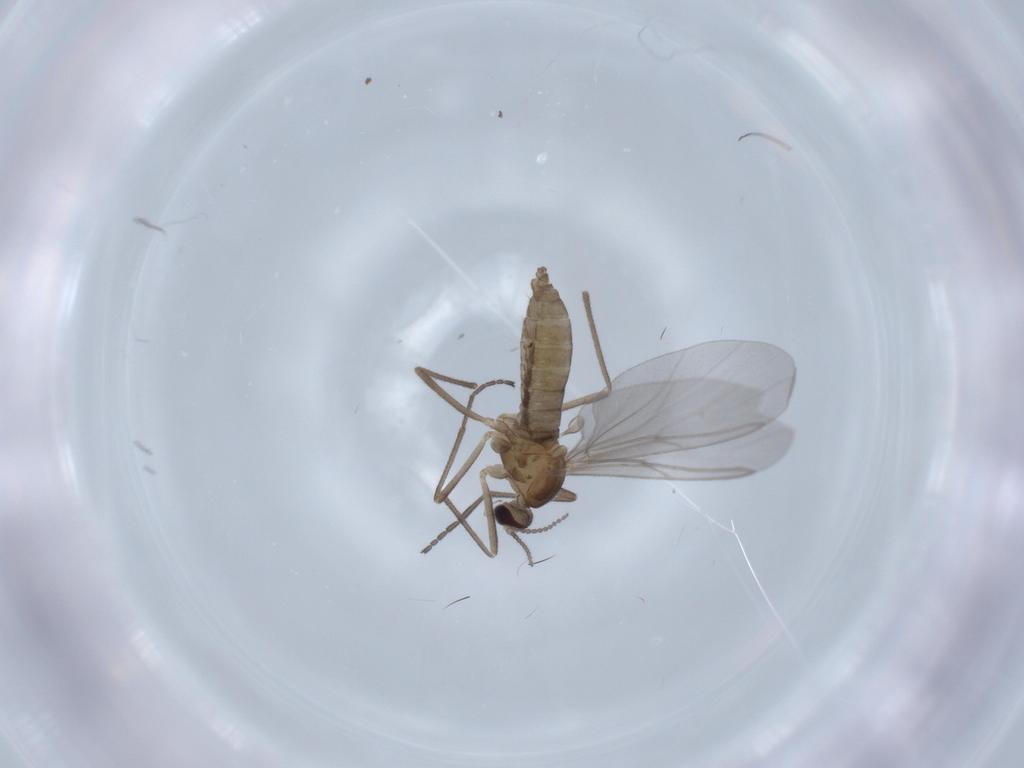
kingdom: Animalia
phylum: Arthropoda
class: Insecta
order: Diptera
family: Cecidomyiidae
